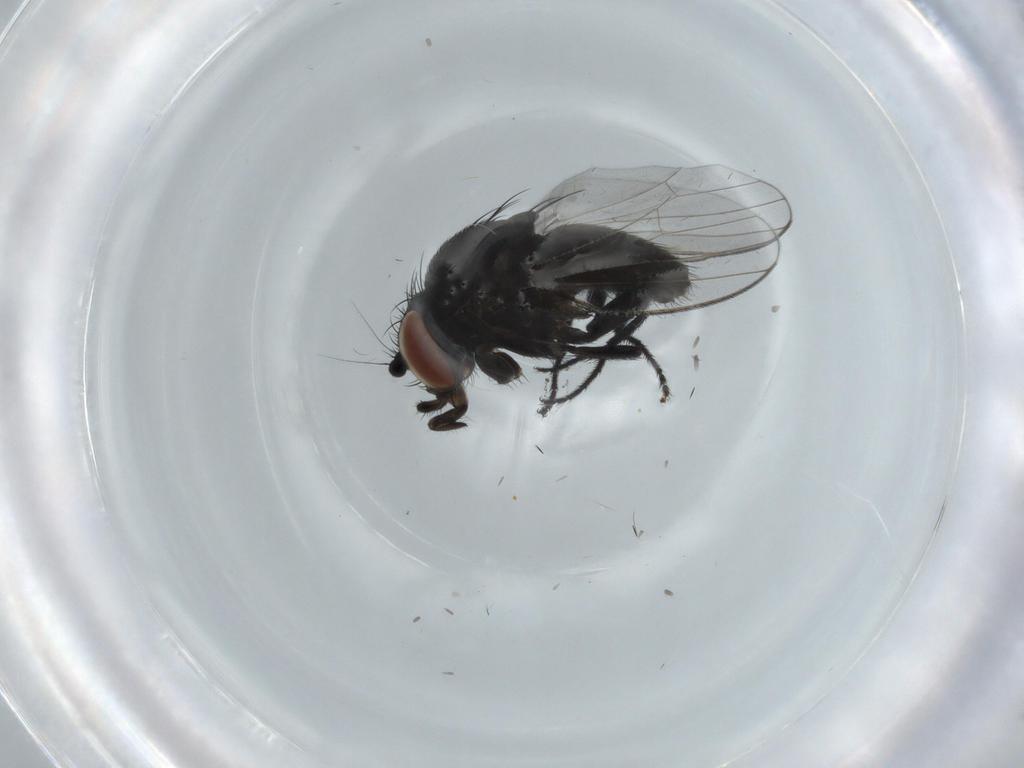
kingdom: Animalia
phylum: Arthropoda
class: Insecta
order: Diptera
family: Milichiidae
